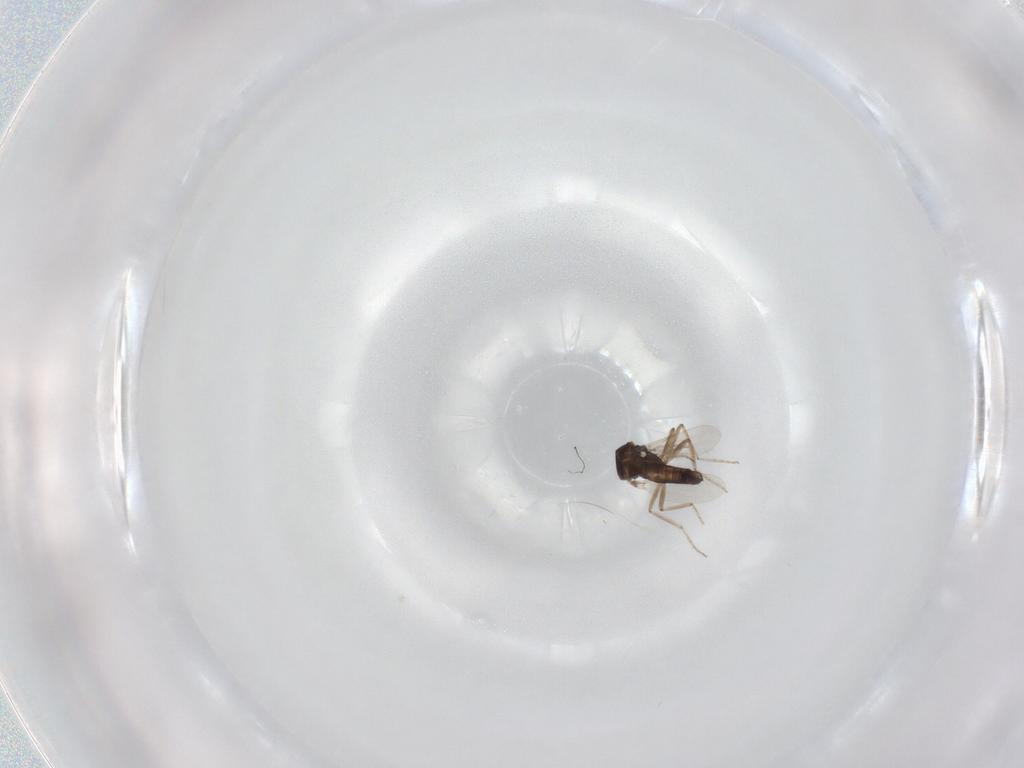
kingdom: Animalia
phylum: Arthropoda
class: Insecta
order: Diptera
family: Ceratopogonidae
